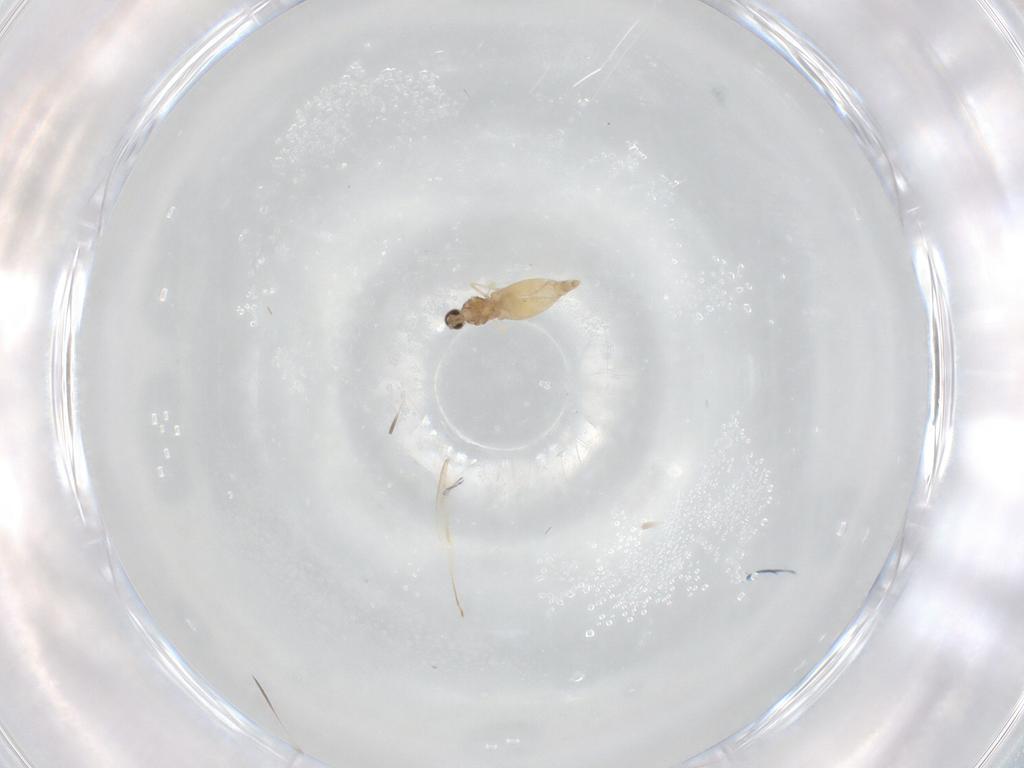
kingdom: Animalia
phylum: Arthropoda
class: Insecta
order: Diptera
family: Cecidomyiidae
